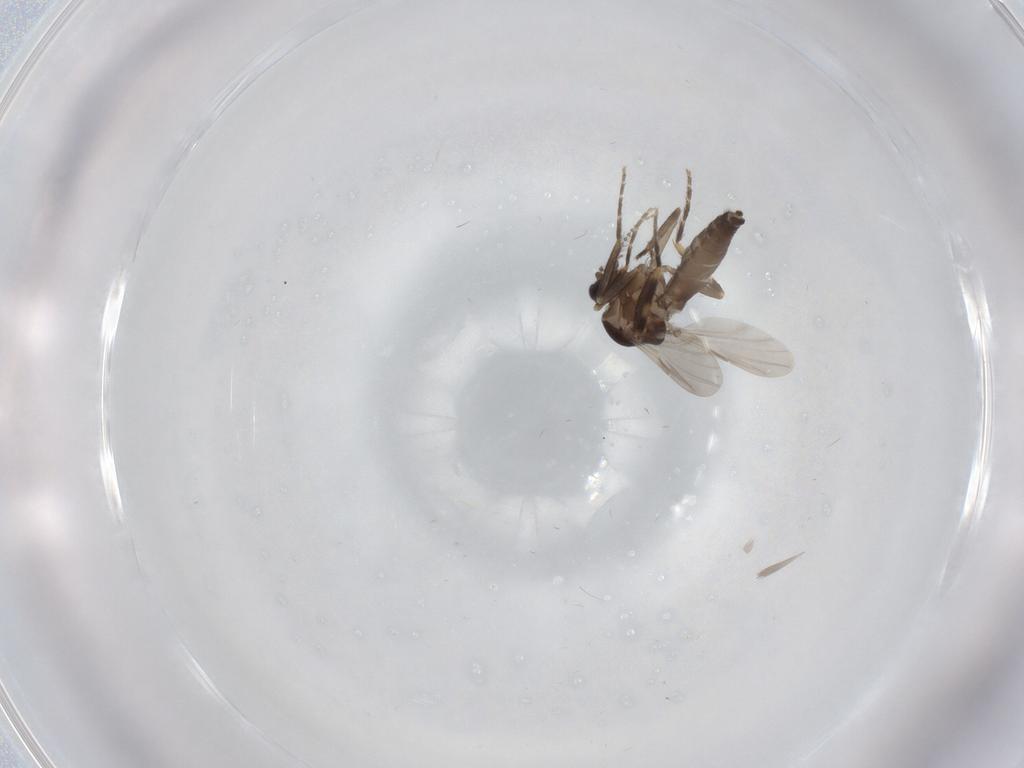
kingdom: Animalia
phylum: Arthropoda
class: Insecta
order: Diptera
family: Ceratopogonidae
